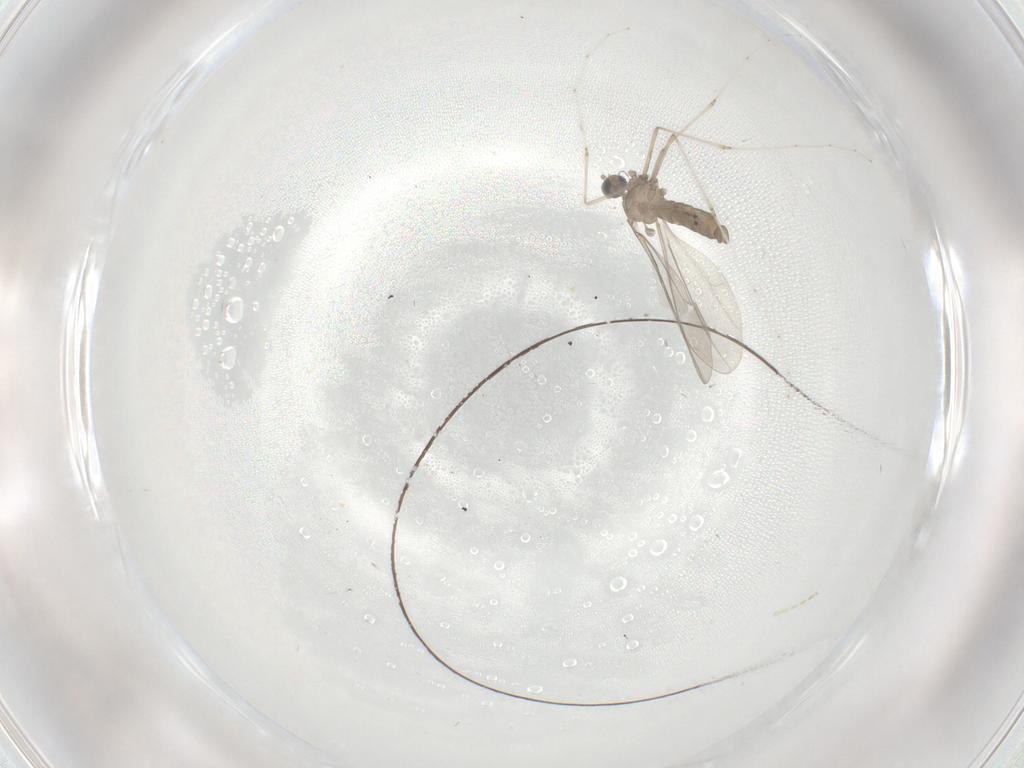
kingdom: Animalia
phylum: Arthropoda
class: Insecta
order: Diptera
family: Cecidomyiidae
